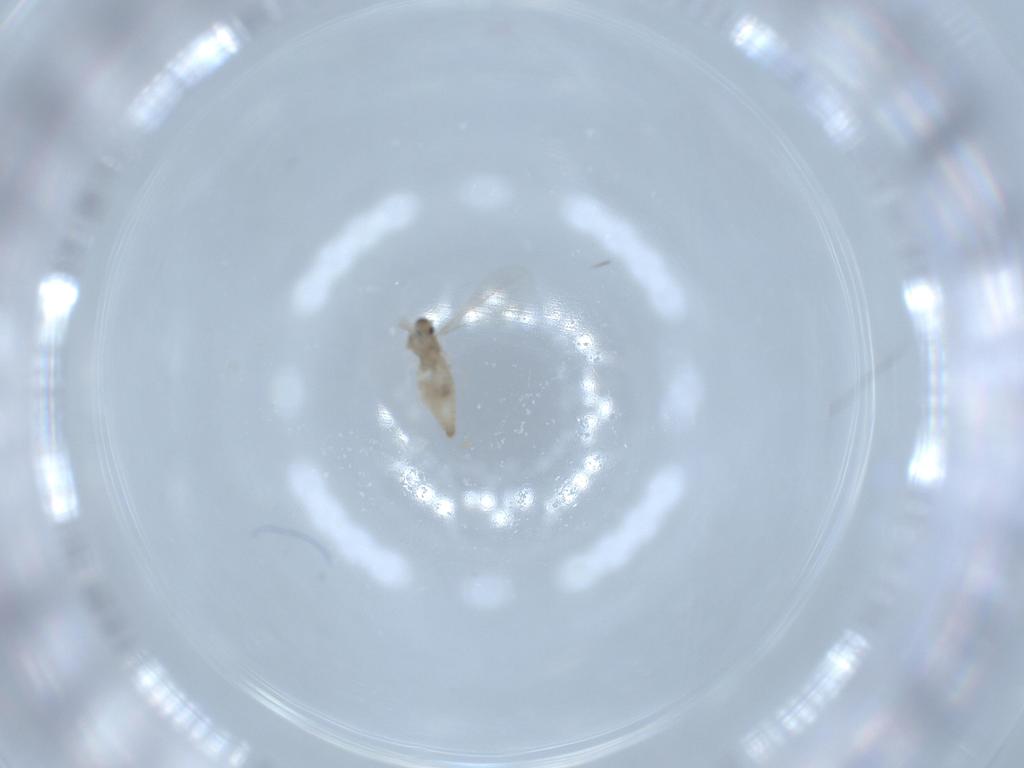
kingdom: Animalia
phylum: Arthropoda
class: Insecta
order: Diptera
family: Cecidomyiidae
